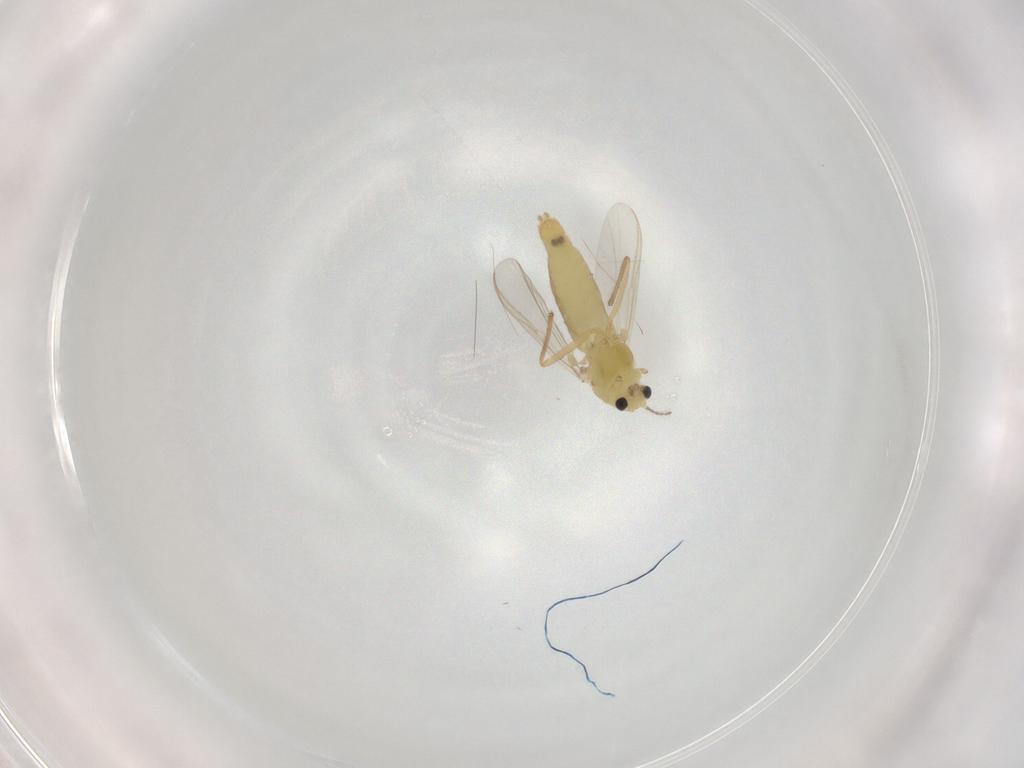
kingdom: Animalia
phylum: Arthropoda
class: Insecta
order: Diptera
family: Chironomidae
